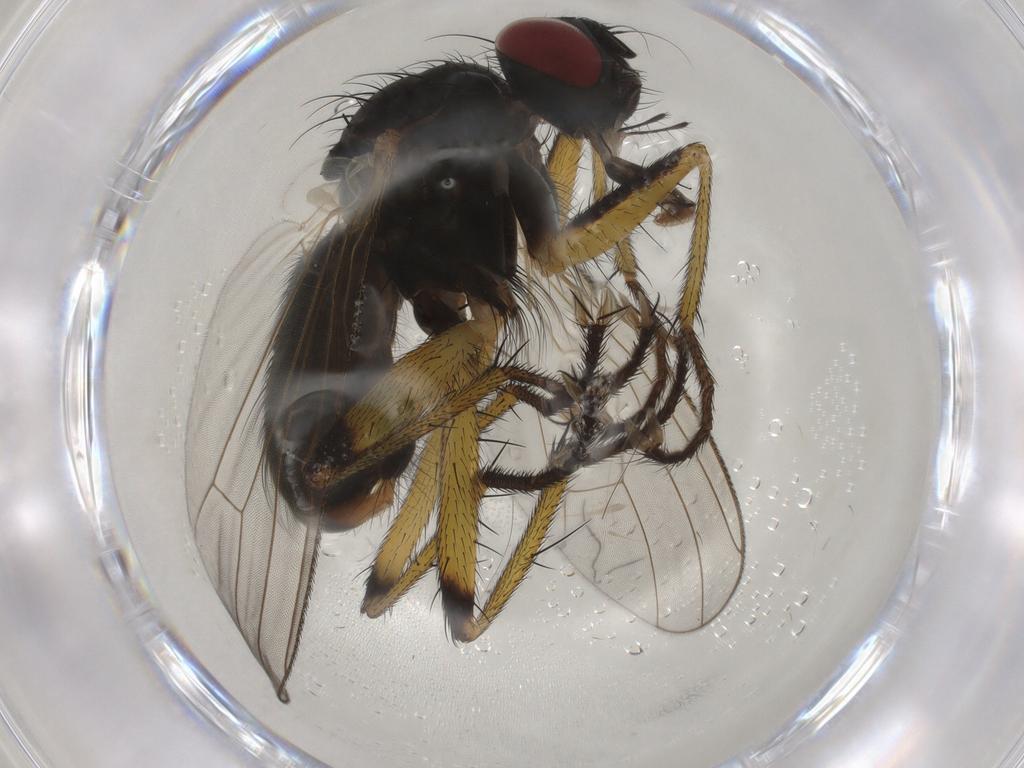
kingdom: Animalia
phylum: Arthropoda
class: Insecta
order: Diptera
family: Muscidae
